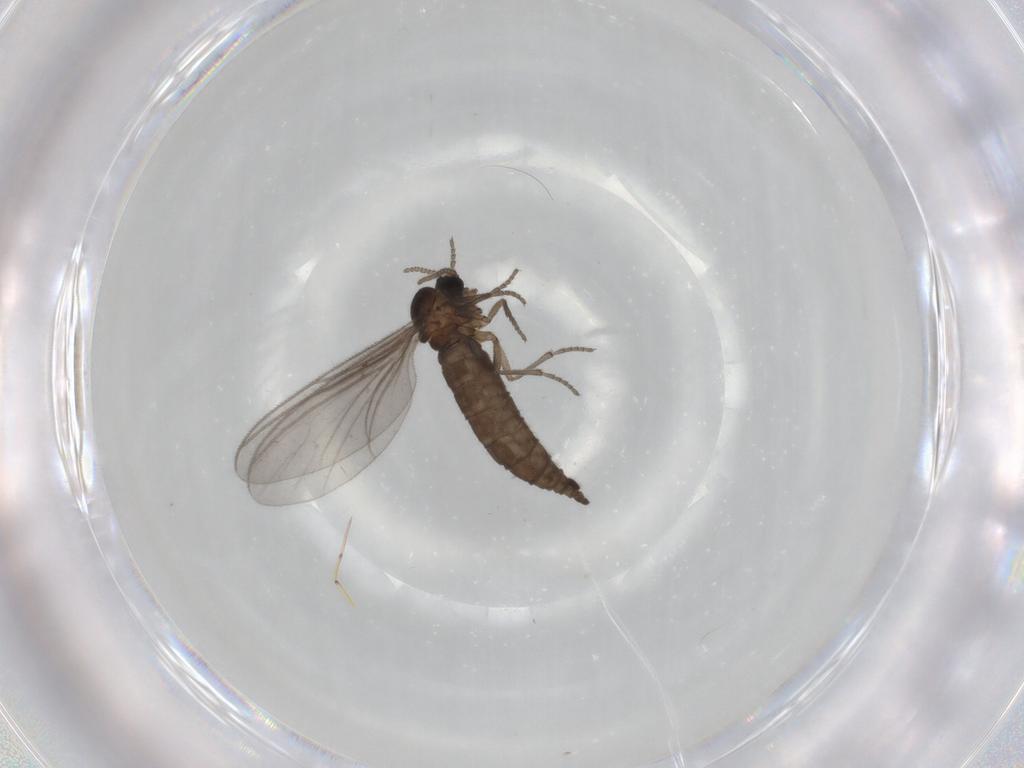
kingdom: Animalia
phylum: Arthropoda
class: Insecta
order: Diptera
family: Sciaridae
